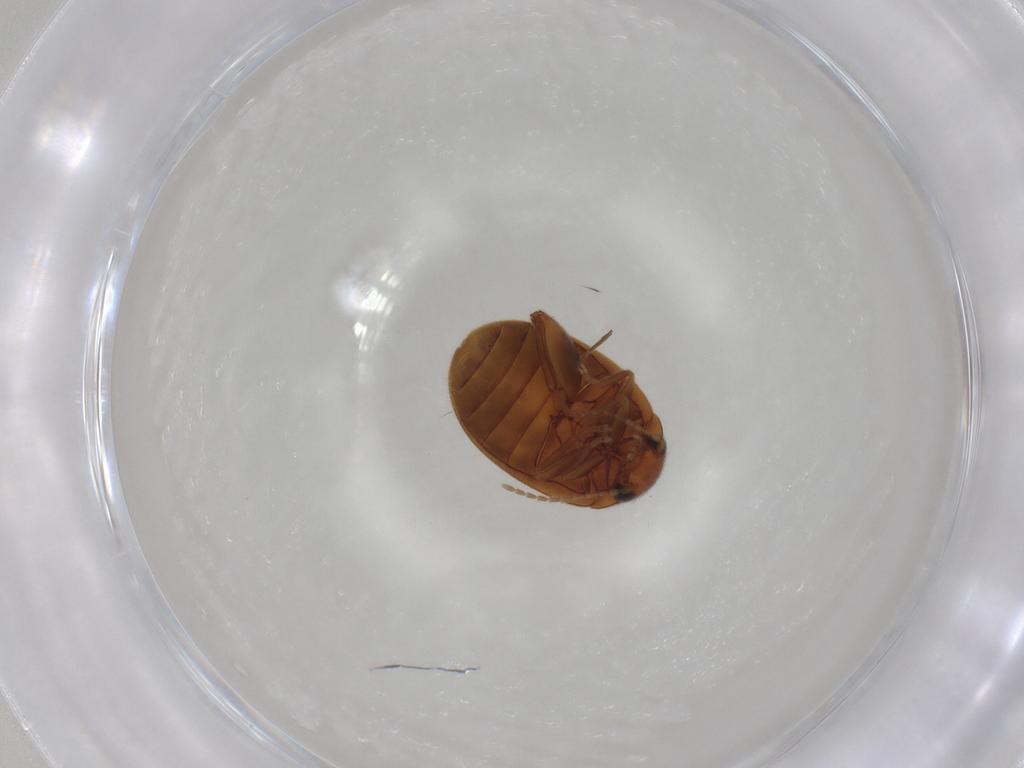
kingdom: Animalia
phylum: Arthropoda
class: Insecta
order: Coleoptera
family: Scirtidae
